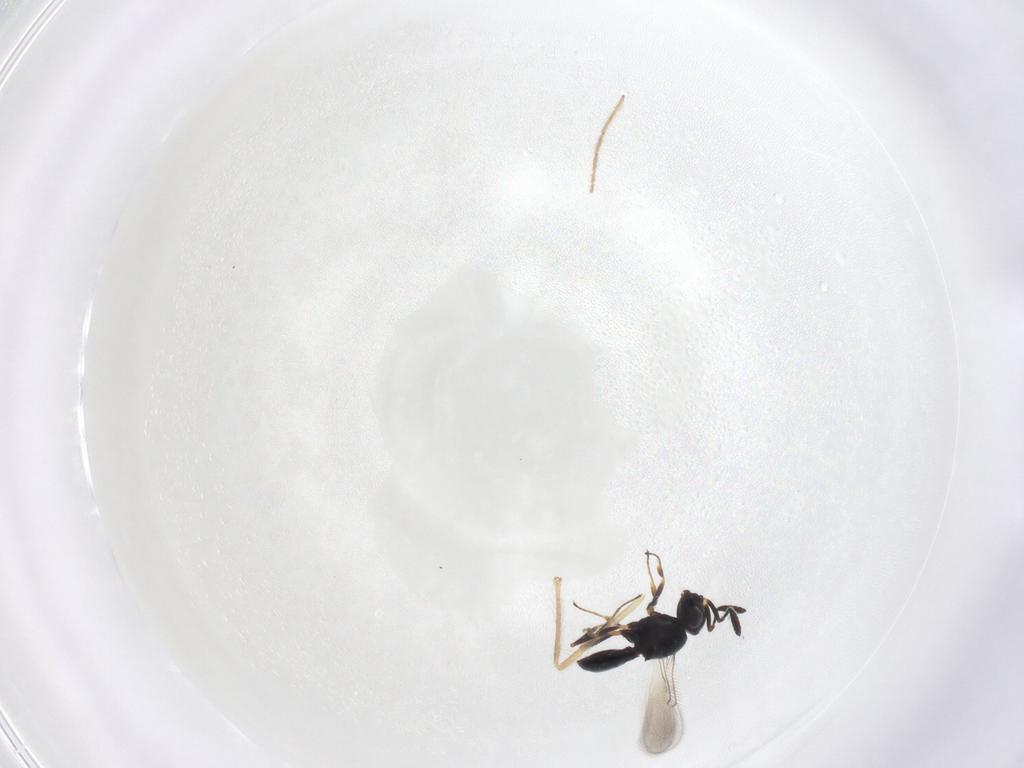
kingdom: Animalia
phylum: Arthropoda
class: Insecta
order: Hymenoptera
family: Scelionidae
